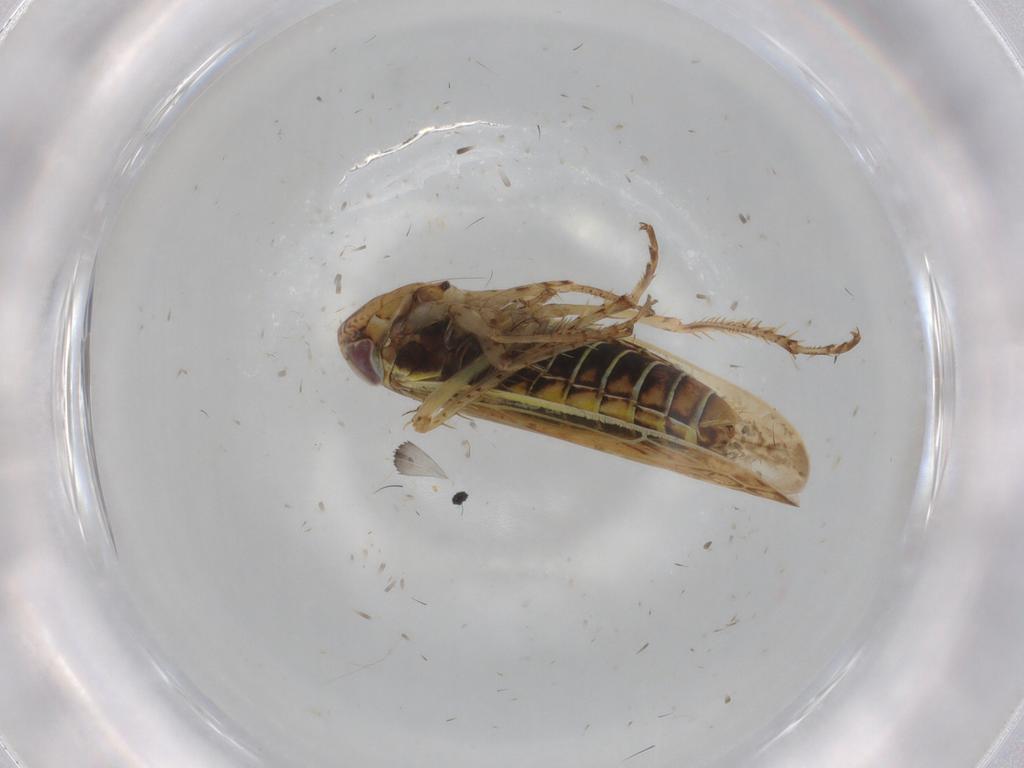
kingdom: Animalia
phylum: Arthropoda
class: Insecta
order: Hemiptera
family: Cicadellidae
